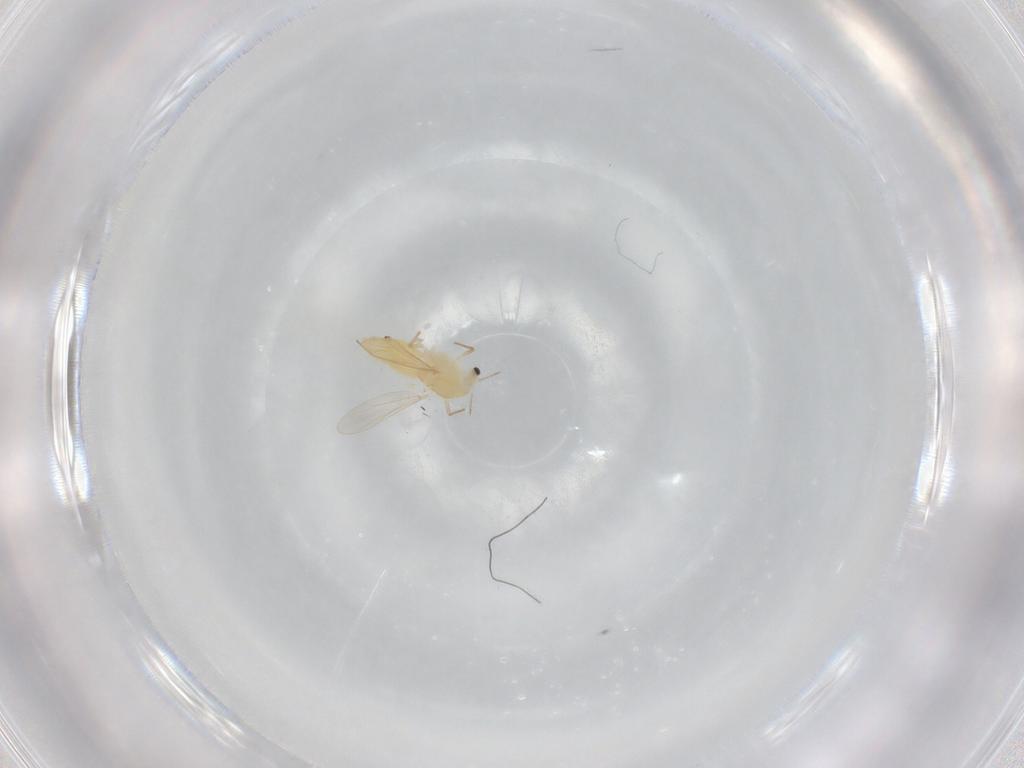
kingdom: Animalia
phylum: Arthropoda
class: Insecta
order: Diptera
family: Chironomidae
